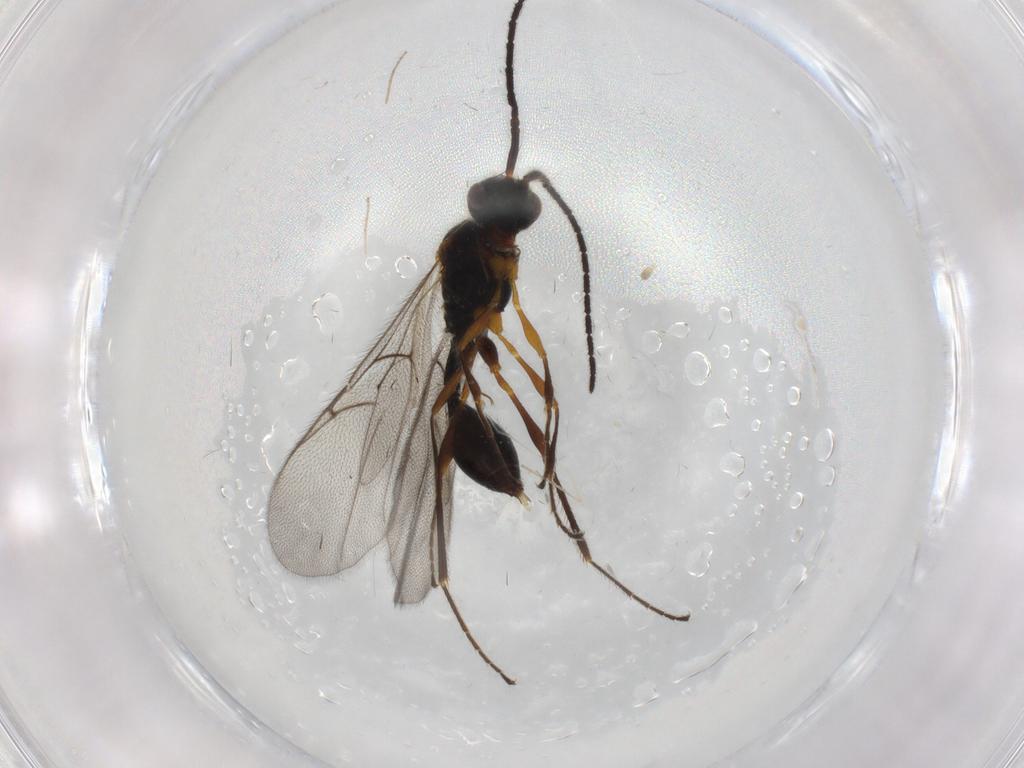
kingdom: Animalia
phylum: Arthropoda
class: Insecta
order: Hymenoptera
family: Diapriidae
